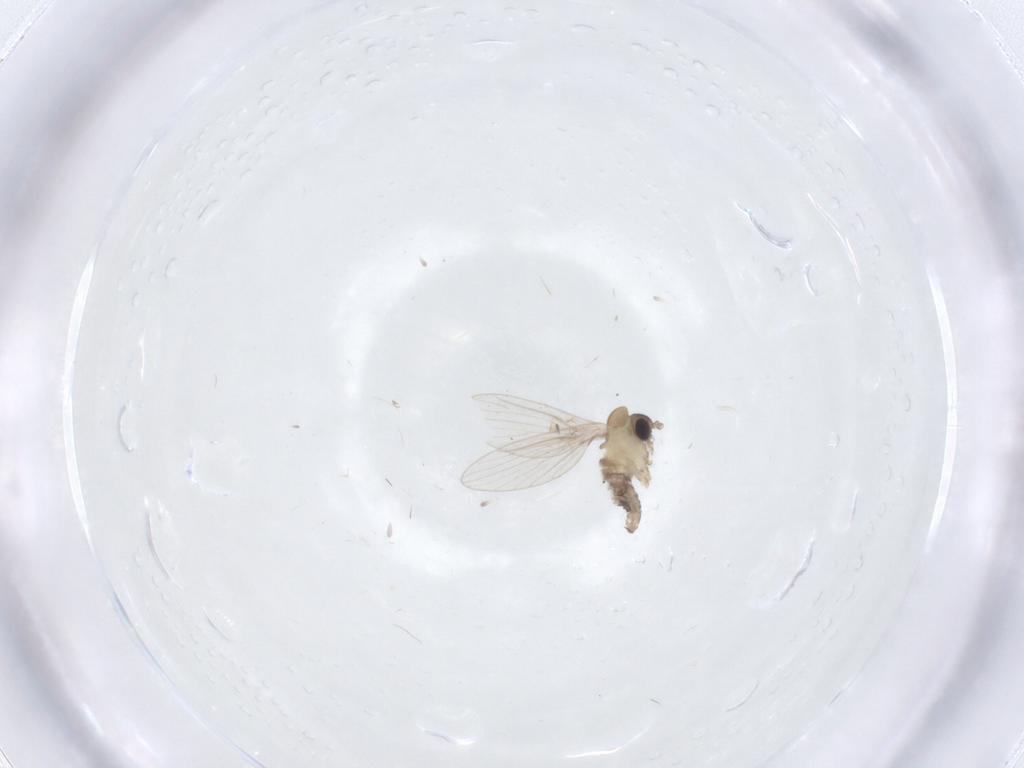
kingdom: Animalia
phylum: Arthropoda
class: Insecta
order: Diptera
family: Psychodidae
